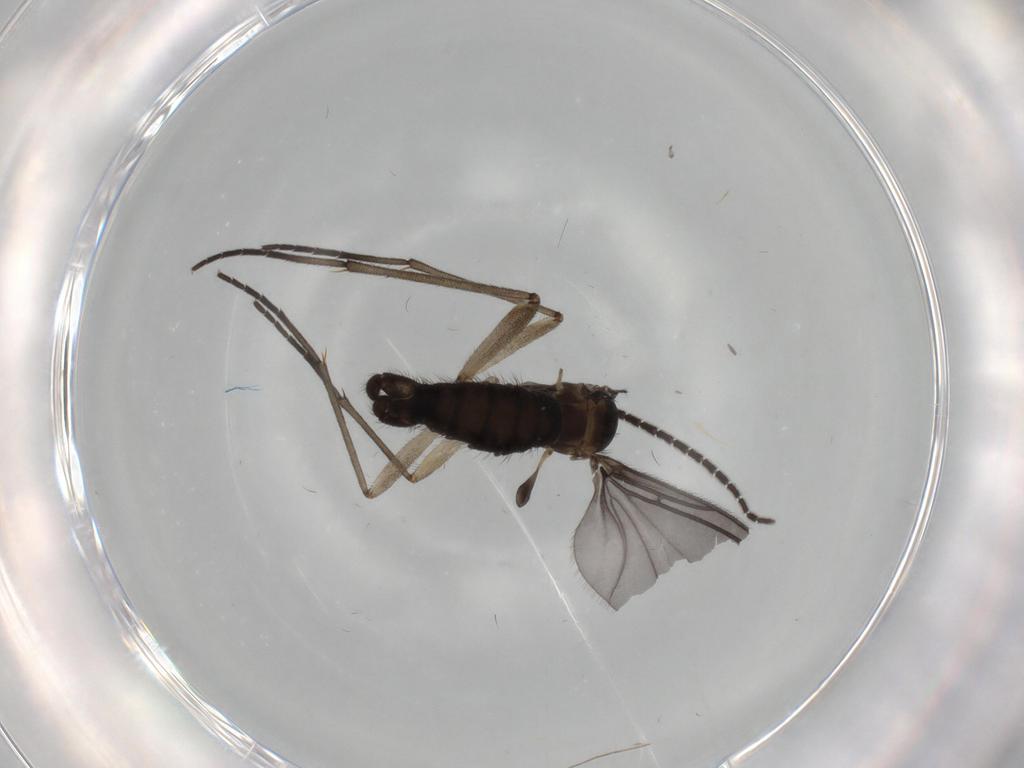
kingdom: Animalia
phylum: Arthropoda
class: Insecta
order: Diptera
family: Sciaridae
